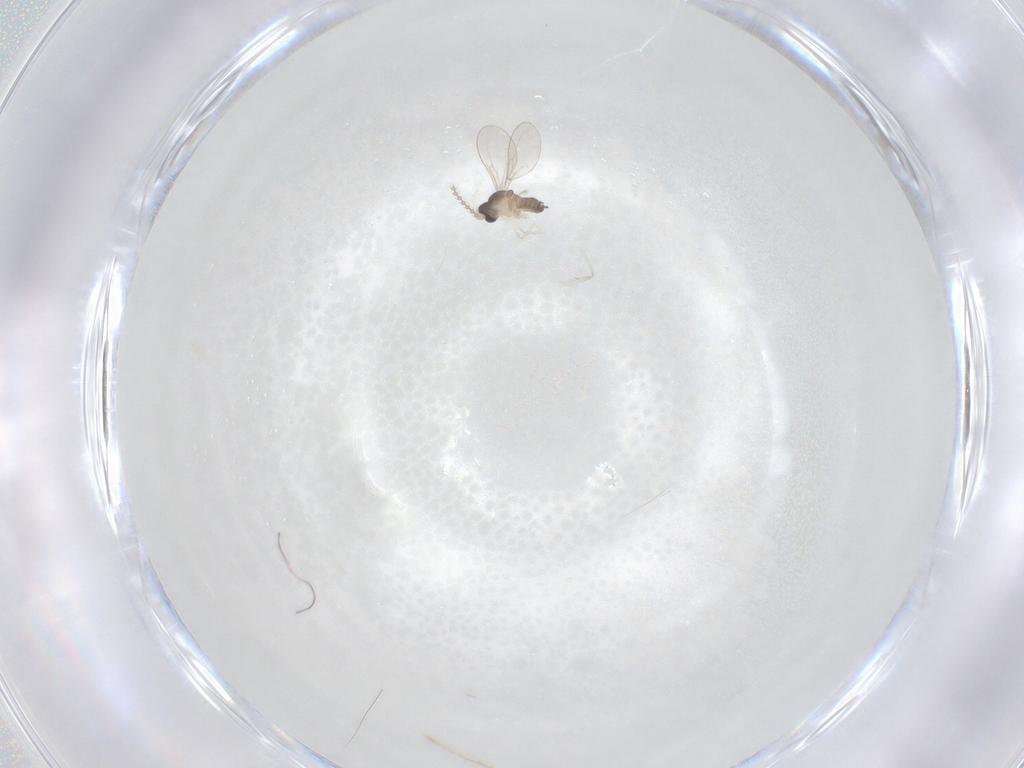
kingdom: Animalia
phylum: Arthropoda
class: Insecta
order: Diptera
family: Cecidomyiidae
